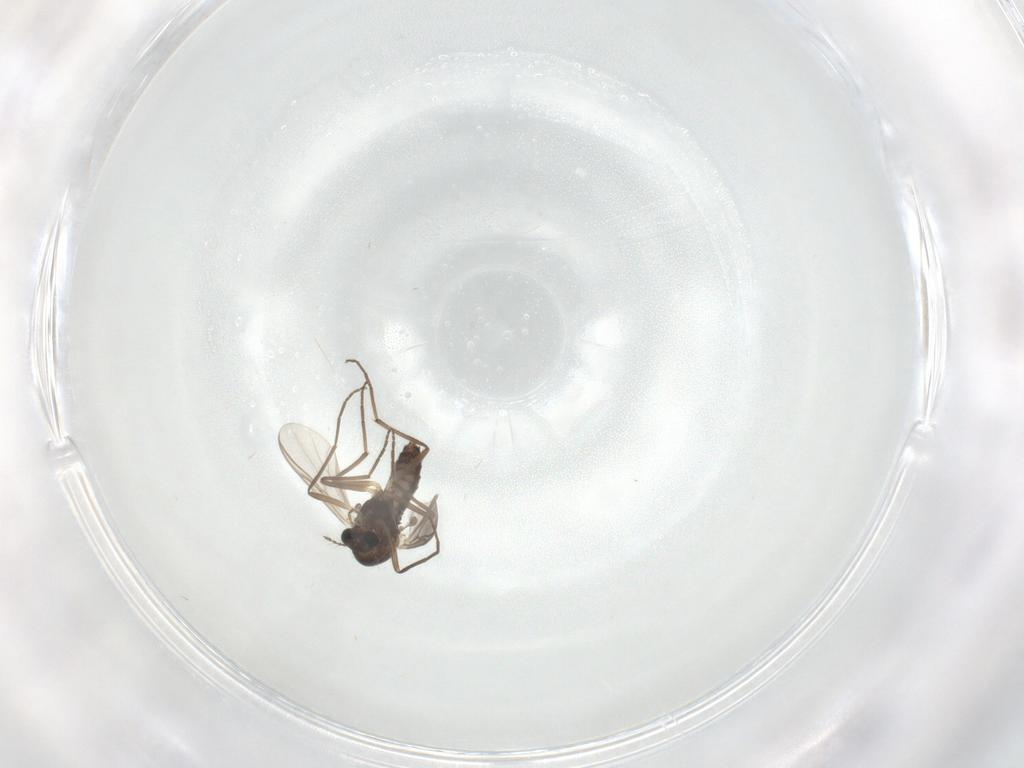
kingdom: Animalia
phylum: Arthropoda
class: Insecta
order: Diptera
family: Chironomidae
